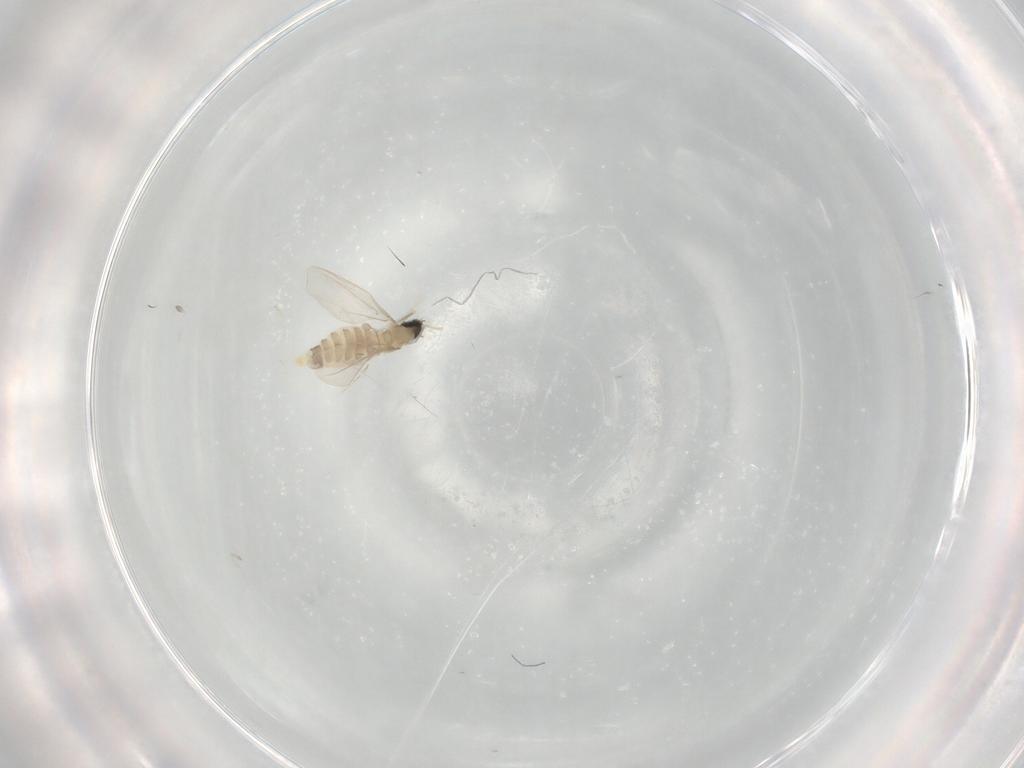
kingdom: Animalia
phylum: Arthropoda
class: Insecta
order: Diptera
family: Cecidomyiidae
